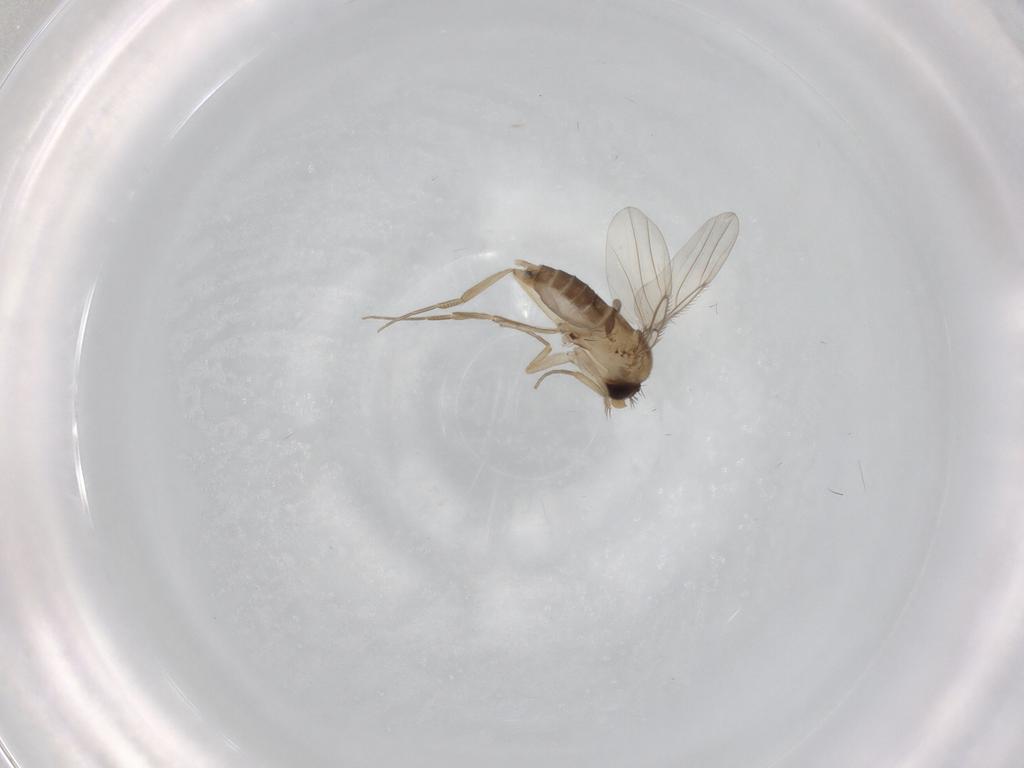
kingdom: Animalia
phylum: Arthropoda
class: Insecta
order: Diptera
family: Phoridae
